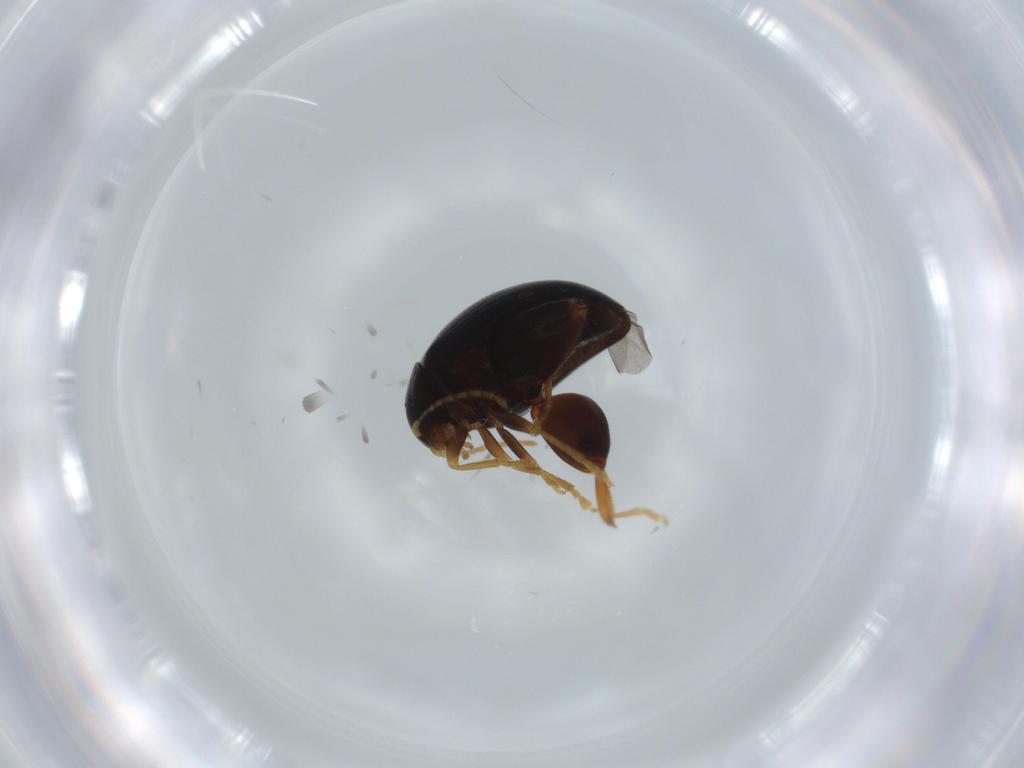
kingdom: Animalia
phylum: Arthropoda
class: Insecta
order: Coleoptera
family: Chrysomelidae
